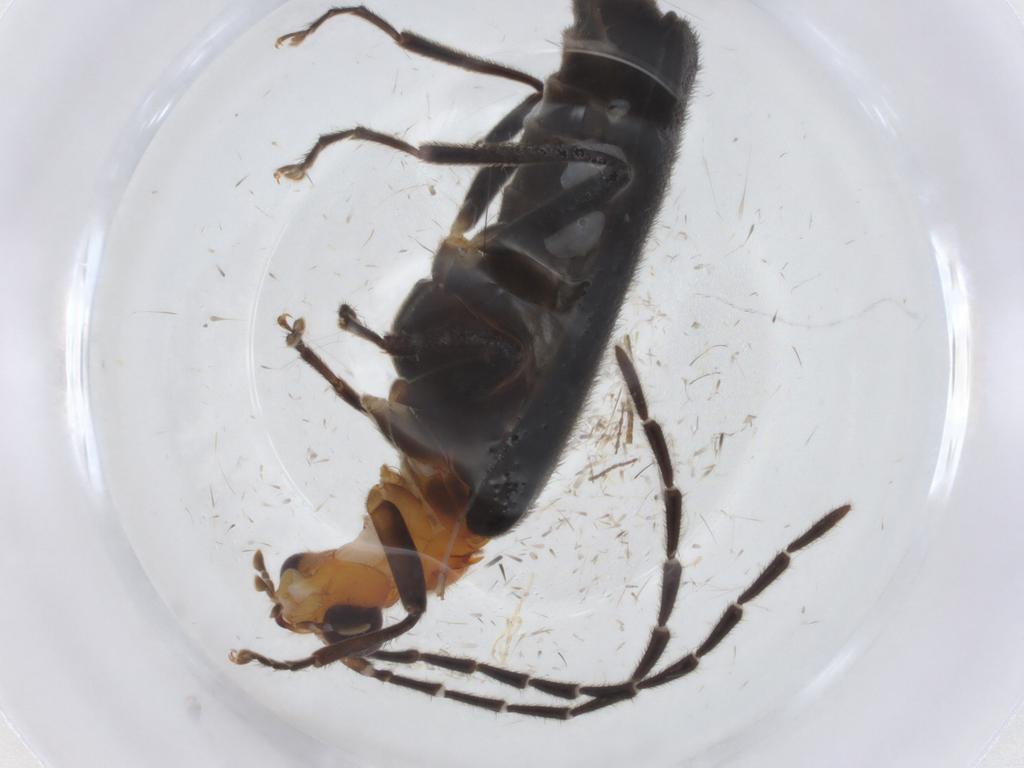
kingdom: Animalia
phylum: Arthropoda
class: Insecta
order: Coleoptera
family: Cantharidae
